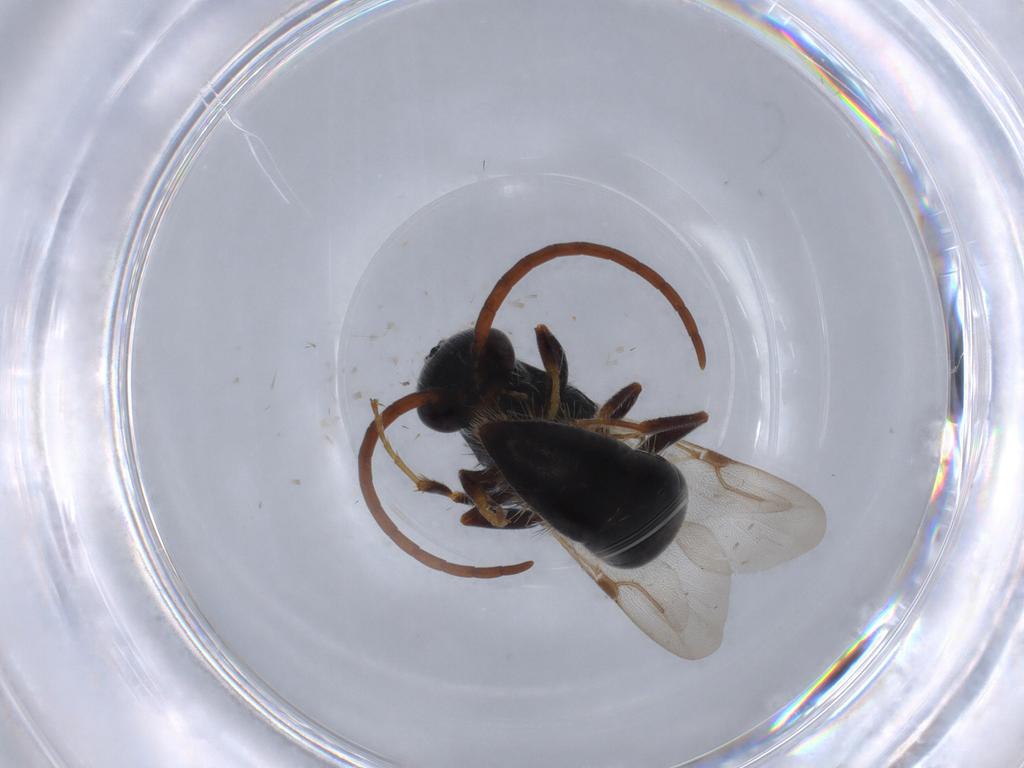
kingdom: Animalia
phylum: Arthropoda
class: Insecta
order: Hymenoptera
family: Bethylidae
